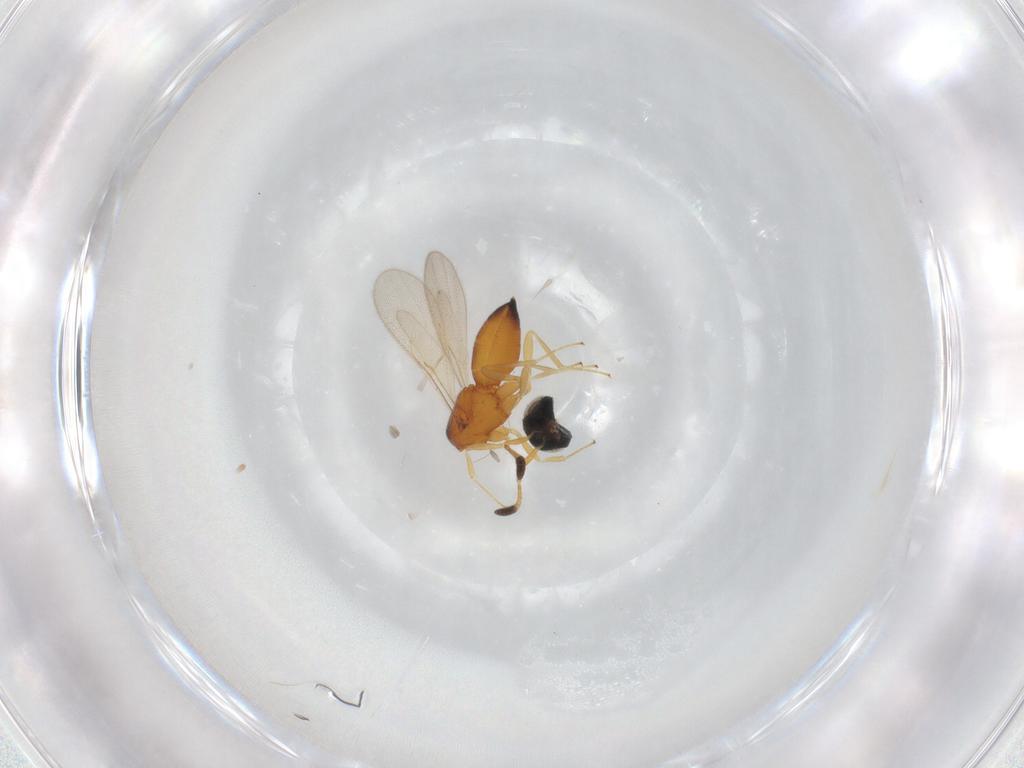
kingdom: Animalia
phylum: Arthropoda
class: Insecta
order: Hymenoptera
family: Scelionidae
